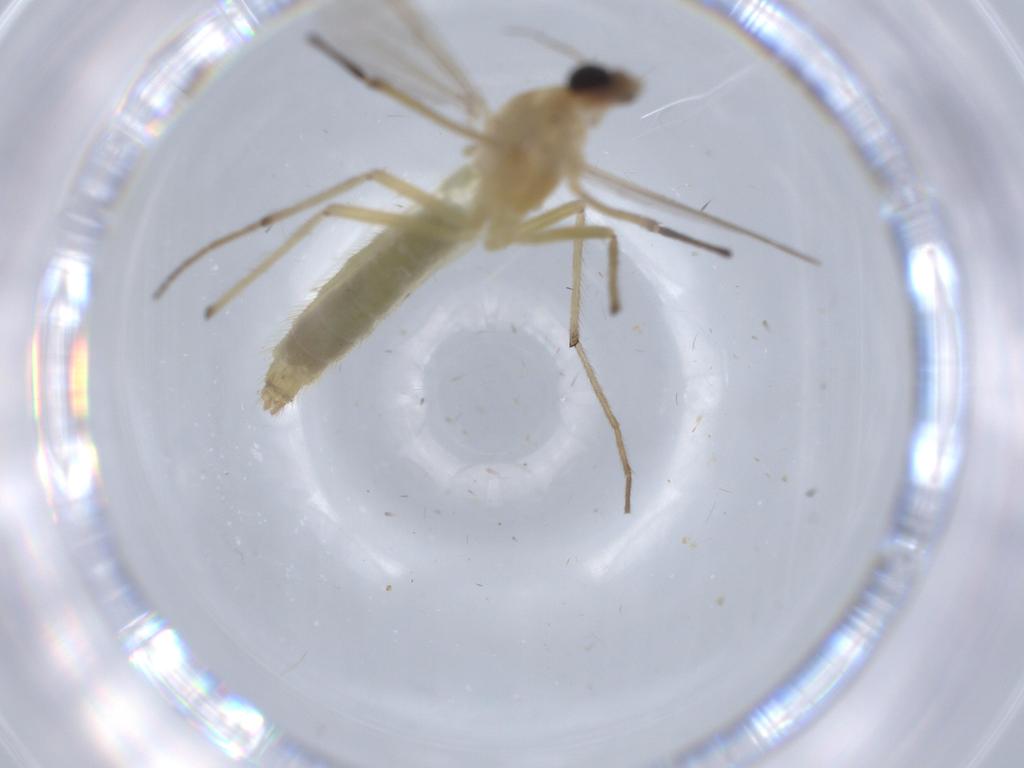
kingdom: Animalia
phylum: Arthropoda
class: Insecta
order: Diptera
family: Chironomidae
